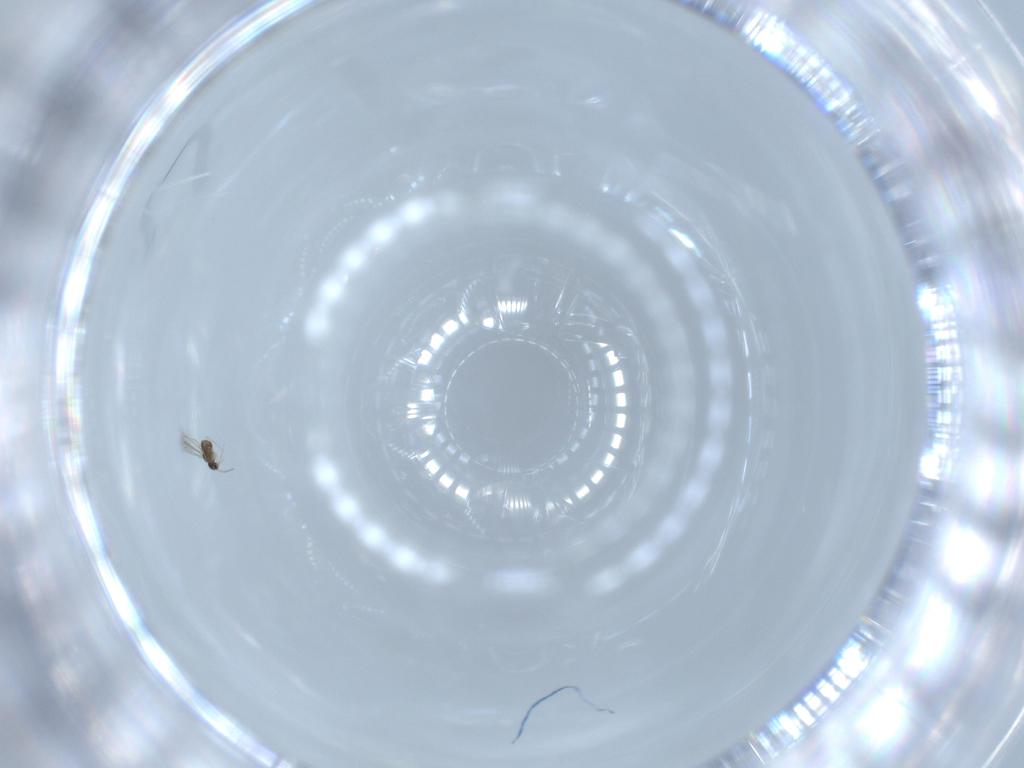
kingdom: Animalia
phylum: Arthropoda
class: Insecta
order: Hymenoptera
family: Mymaridae
